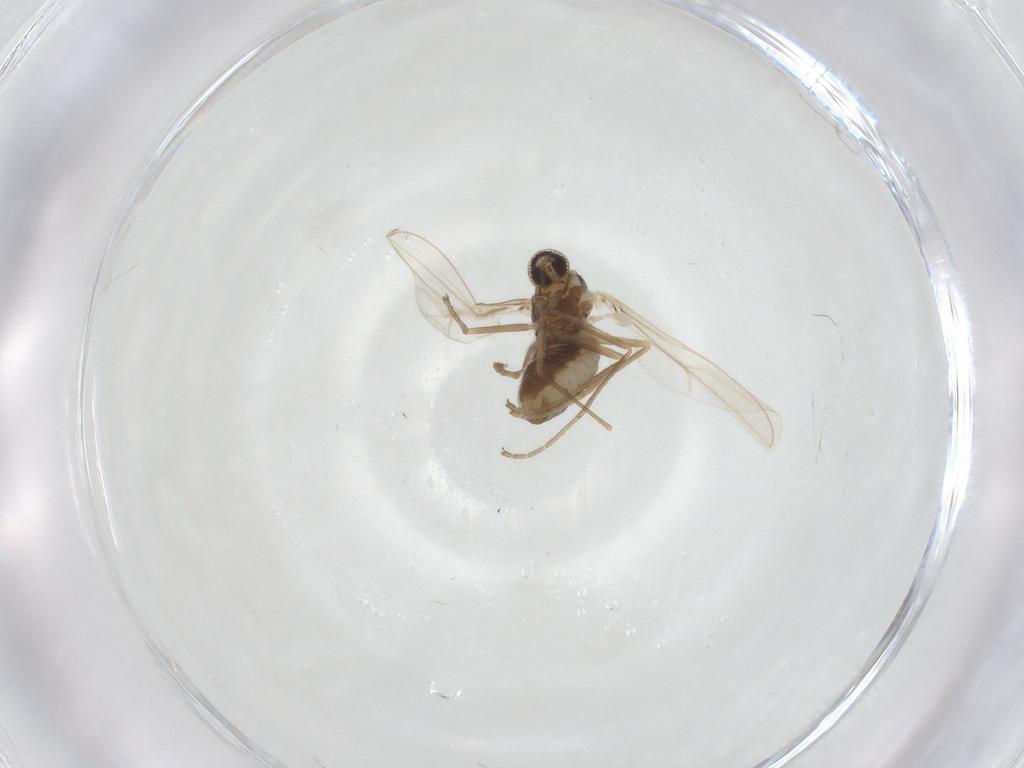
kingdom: Animalia
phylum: Arthropoda
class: Insecta
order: Diptera
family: Cecidomyiidae
